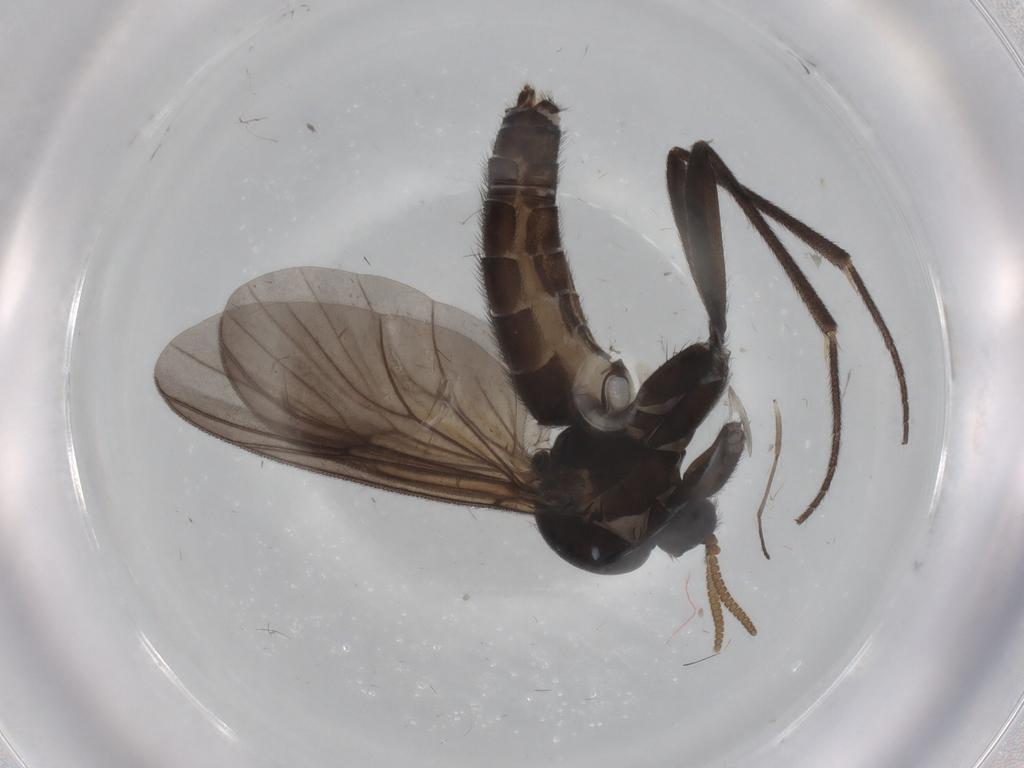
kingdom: Animalia
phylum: Arthropoda
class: Insecta
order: Diptera
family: Mycetophilidae
